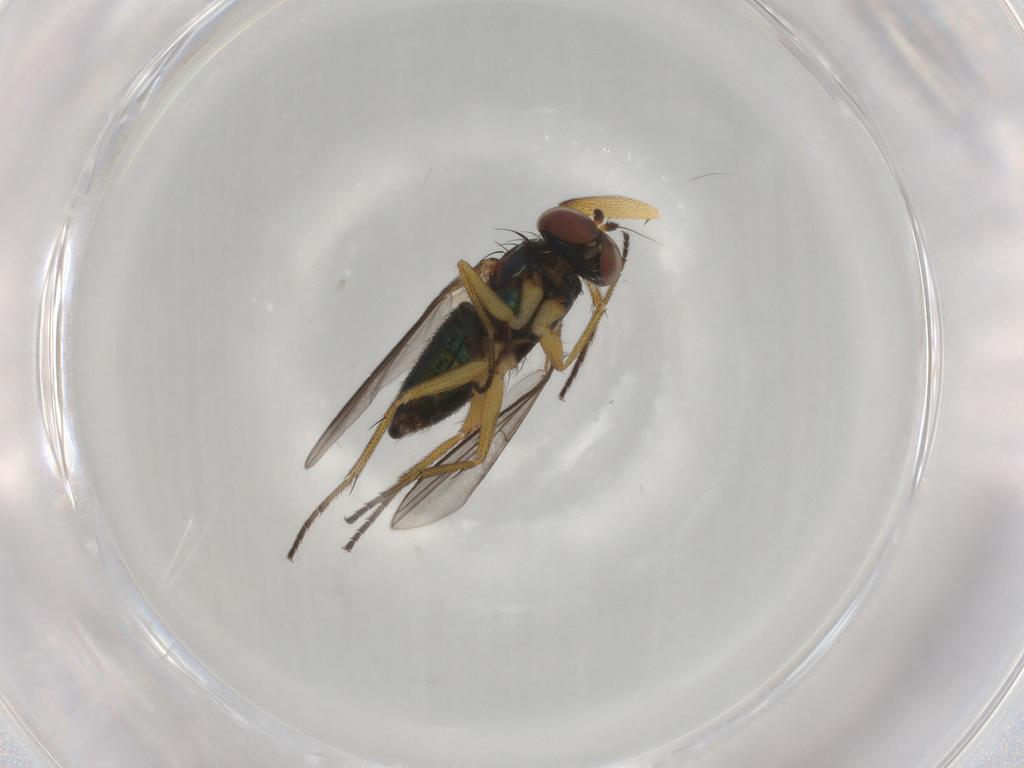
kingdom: Animalia
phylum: Arthropoda
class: Insecta
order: Diptera
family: Dolichopodidae
